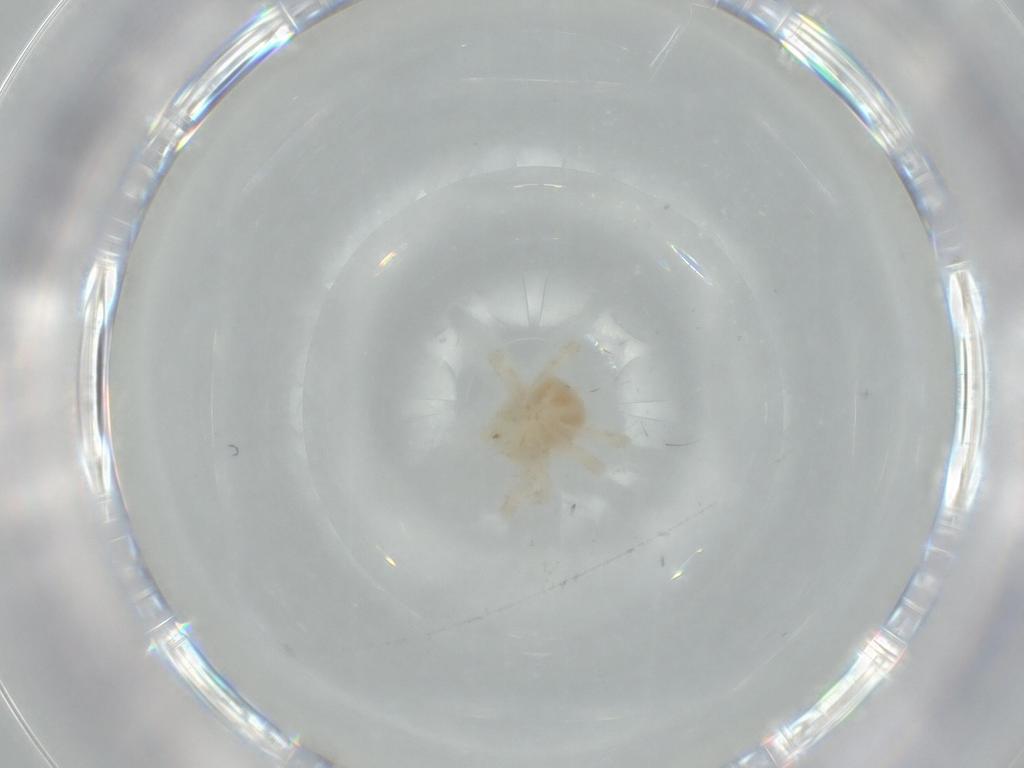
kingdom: Animalia
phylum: Arthropoda
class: Arachnida
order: Trombidiformes
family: Anystidae
